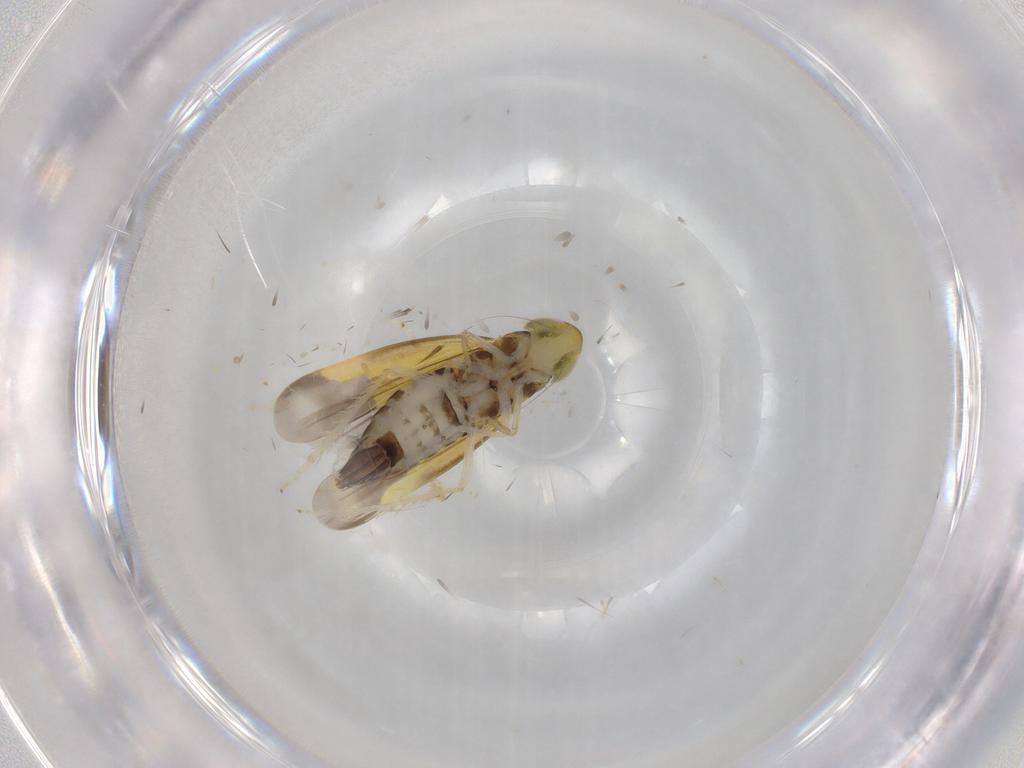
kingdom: Animalia
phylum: Arthropoda
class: Insecta
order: Hemiptera
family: Cicadellidae
